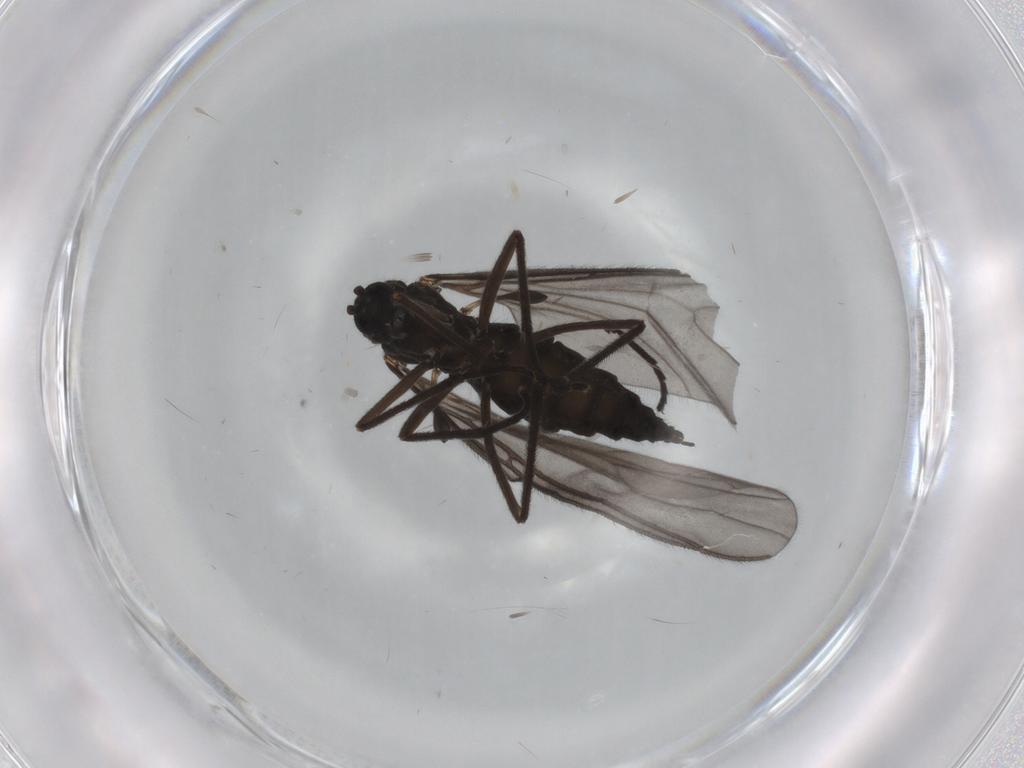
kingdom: Animalia
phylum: Arthropoda
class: Insecta
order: Diptera
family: Sciaridae
